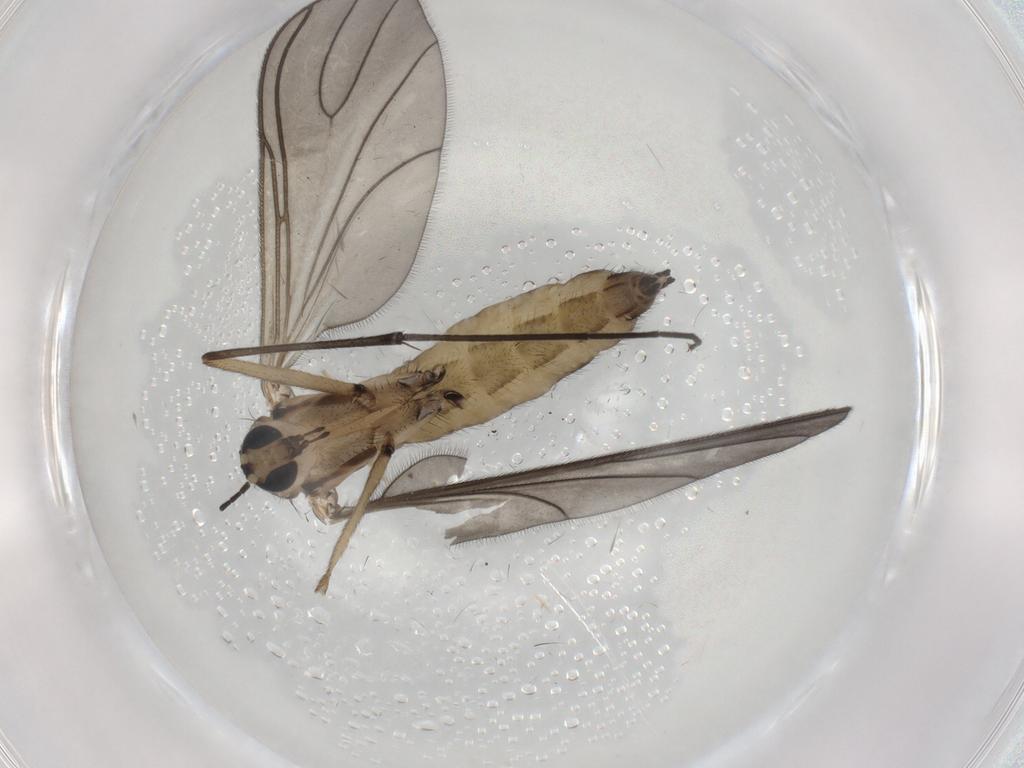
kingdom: Animalia
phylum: Arthropoda
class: Insecta
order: Diptera
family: Sciaridae
